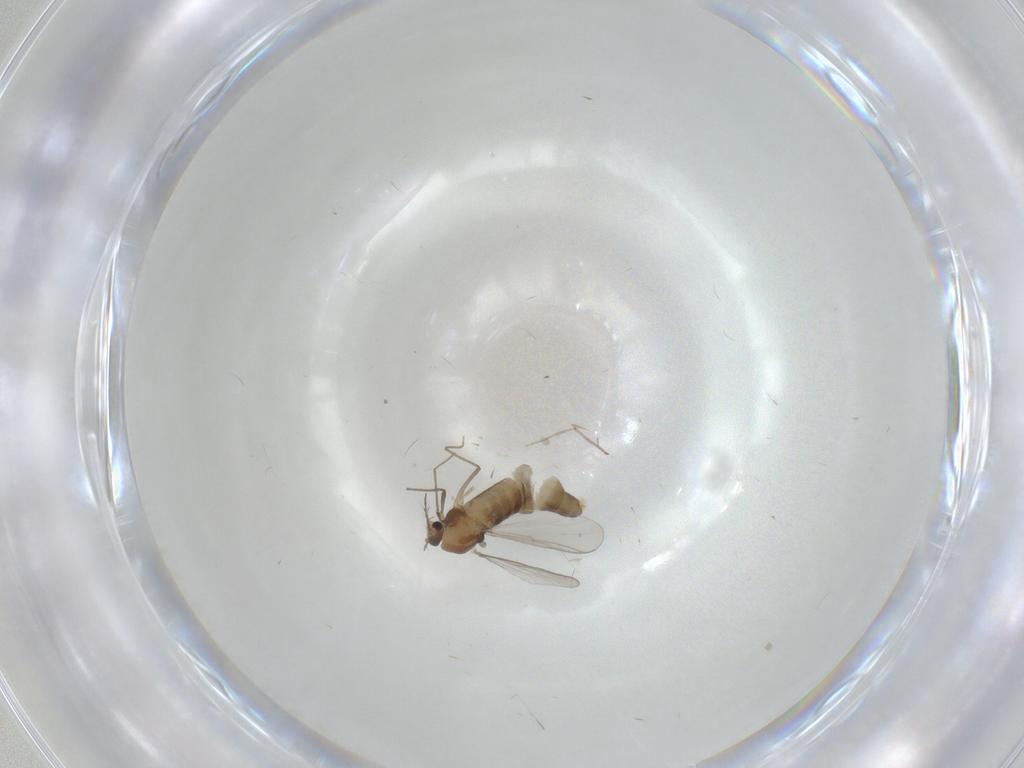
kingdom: Animalia
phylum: Arthropoda
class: Insecta
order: Diptera
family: Chironomidae
